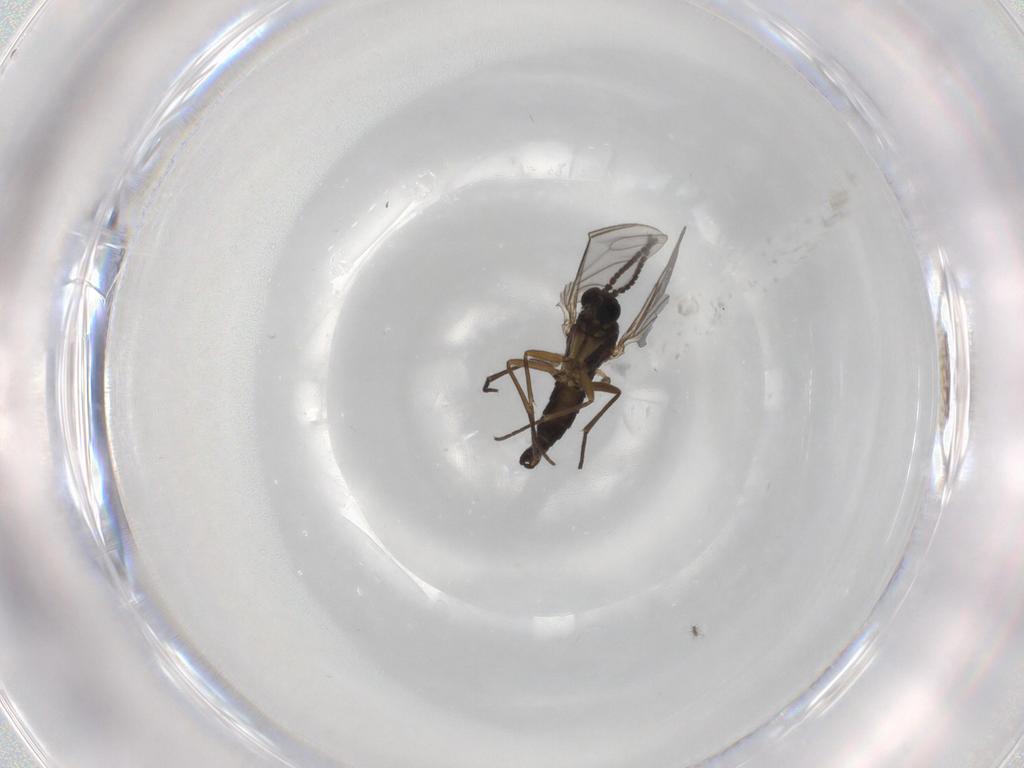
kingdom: Animalia
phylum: Arthropoda
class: Insecta
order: Diptera
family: Sciaridae
